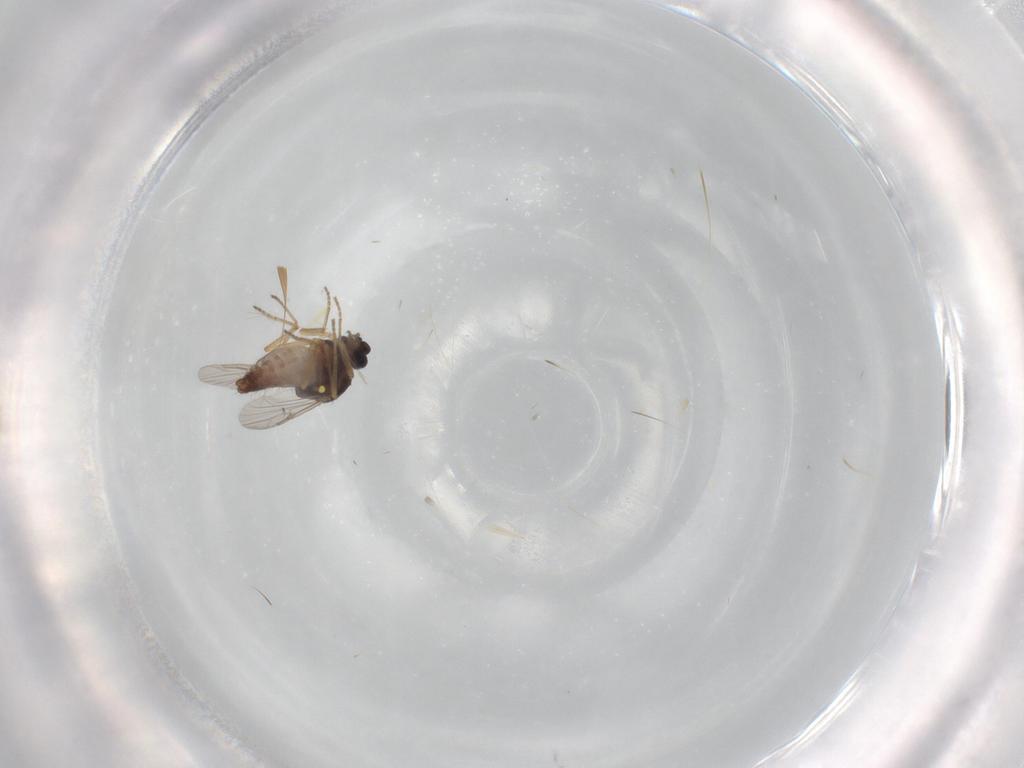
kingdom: Animalia
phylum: Arthropoda
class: Insecta
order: Diptera
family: Ceratopogonidae
